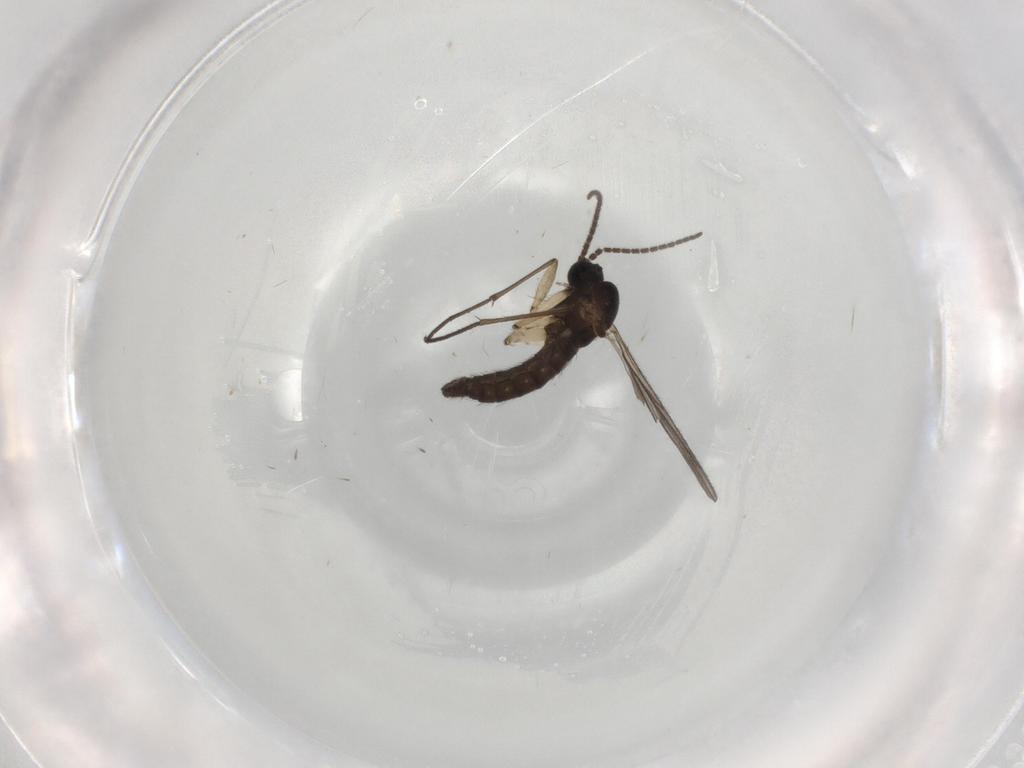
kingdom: Animalia
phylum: Arthropoda
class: Insecta
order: Diptera
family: Sciaridae
